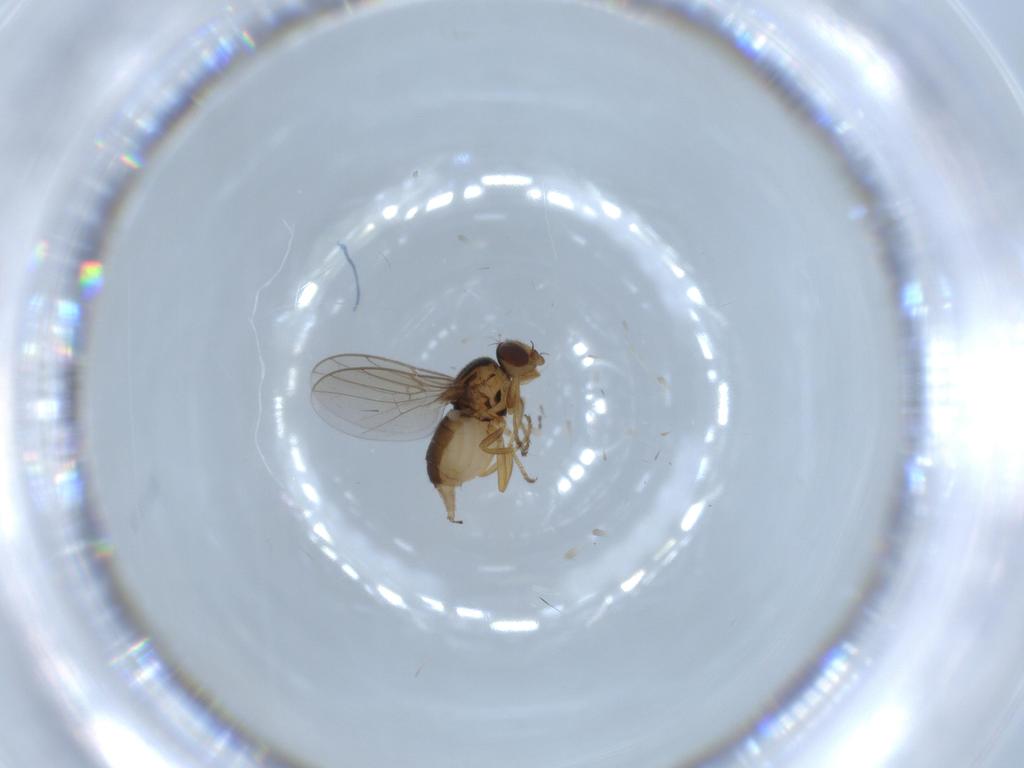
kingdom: Animalia
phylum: Arthropoda
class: Insecta
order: Diptera
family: Chloropidae
